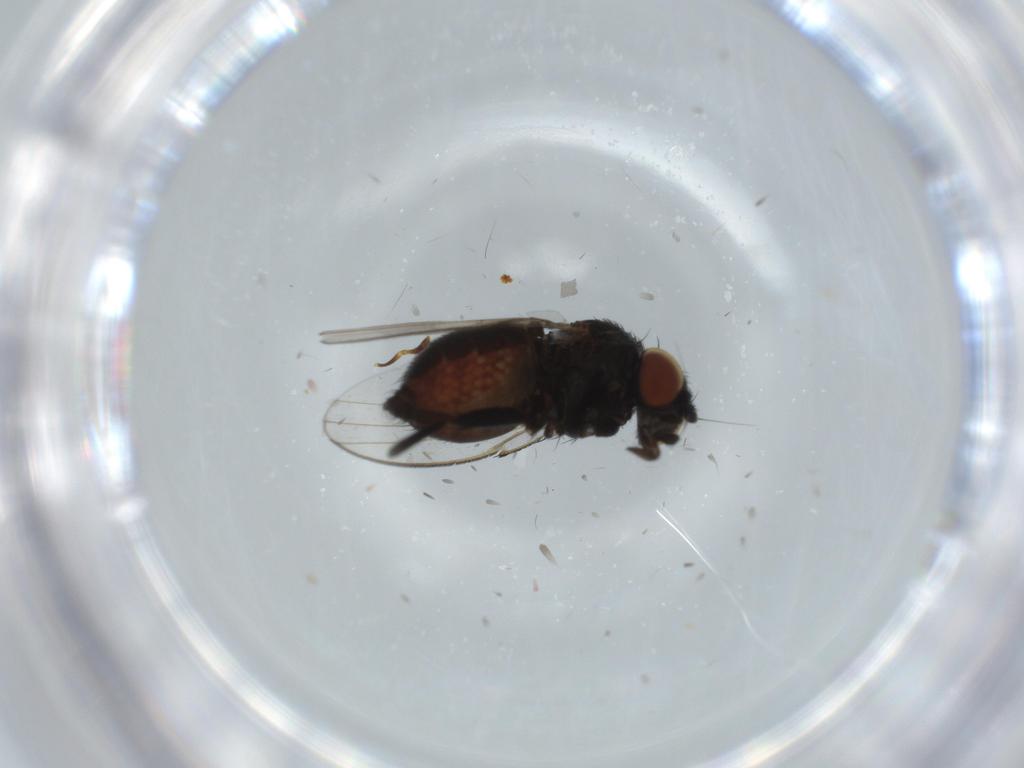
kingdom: Animalia
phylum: Arthropoda
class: Insecta
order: Diptera
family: Milichiidae
